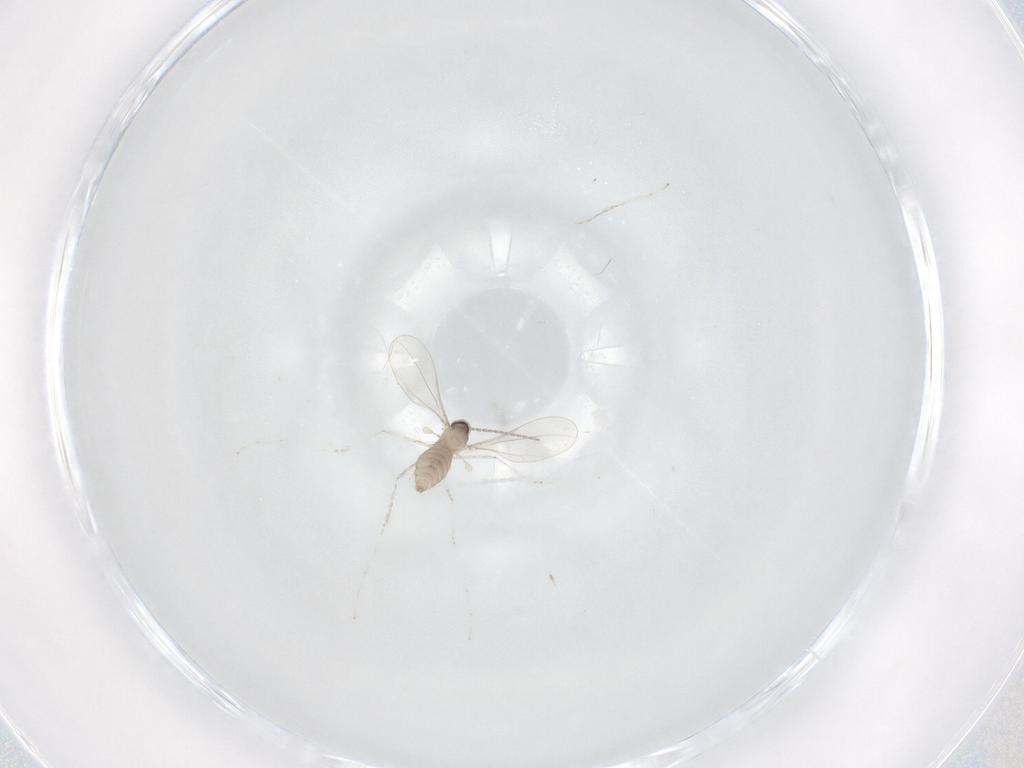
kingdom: Animalia
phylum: Arthropoda
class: Insecta
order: Diptera
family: Cecidomyiidae
